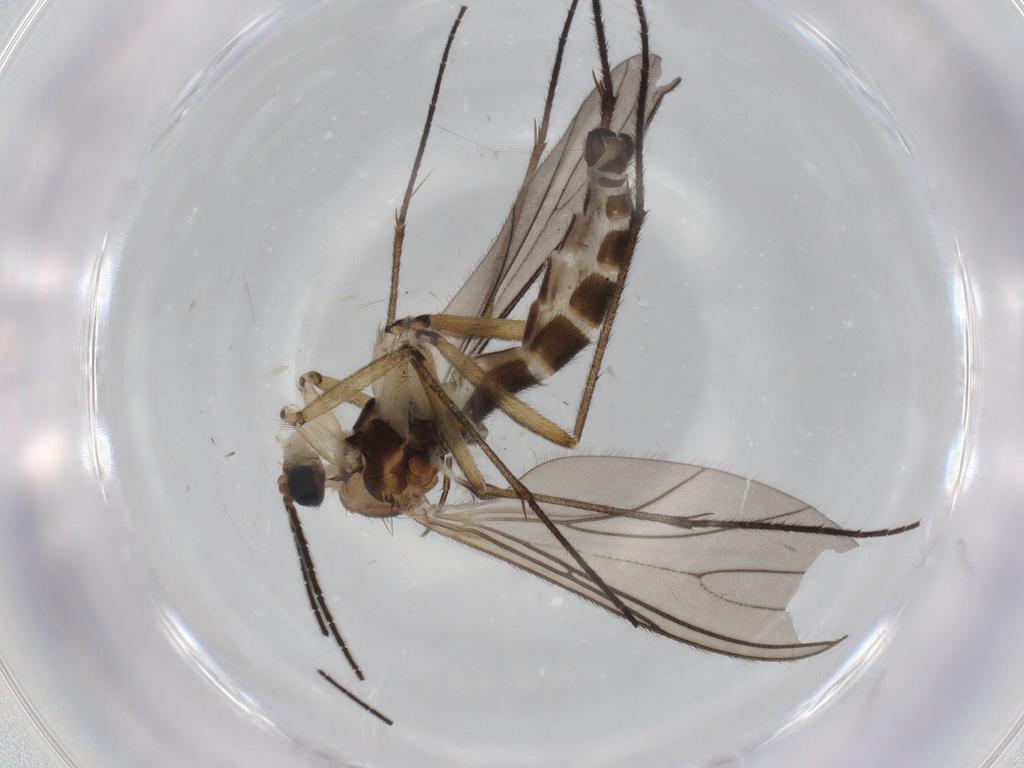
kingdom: Animalia
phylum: Arthropoda
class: Insecta
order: Diptera
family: Sciaridae
